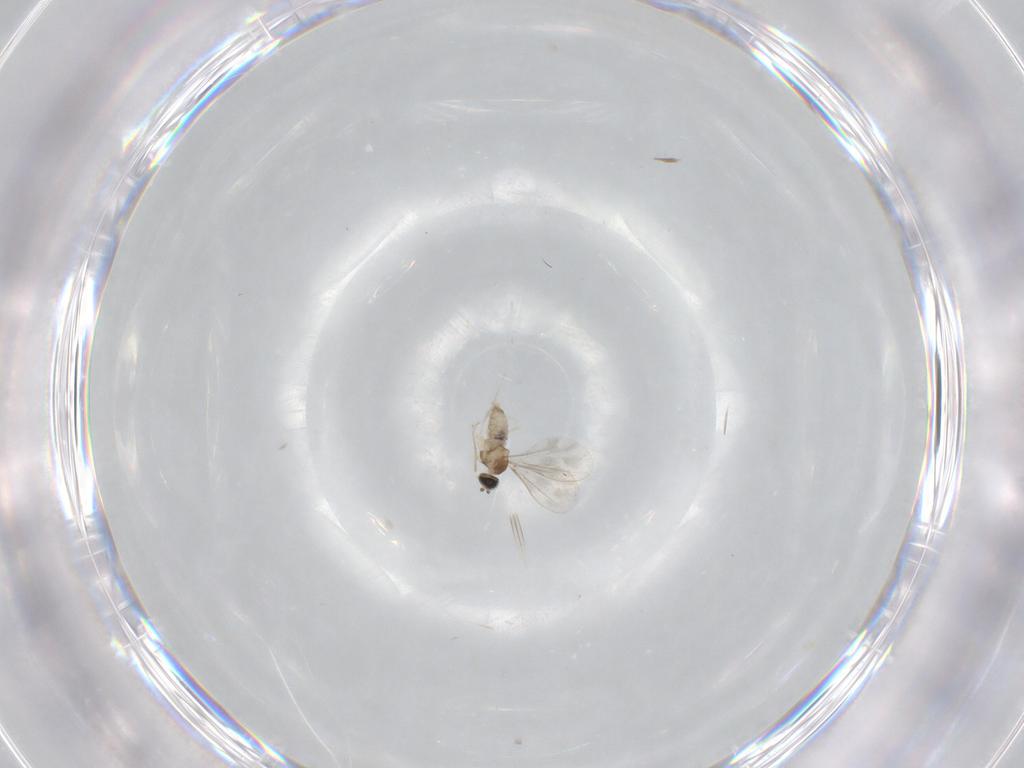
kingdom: Animalia
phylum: Arthropoda
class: Insecta
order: Diptera
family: Cecidomyiidae
